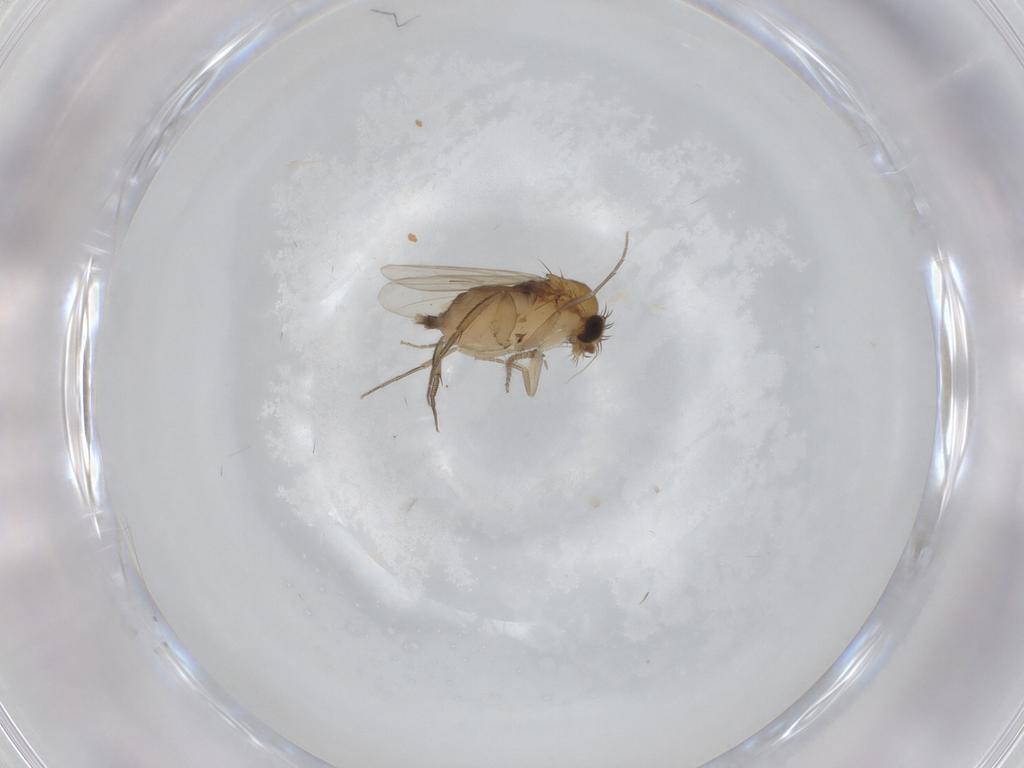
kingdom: Animalia
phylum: Arthropoda
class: Insecta
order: Diptera
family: Phoridae
